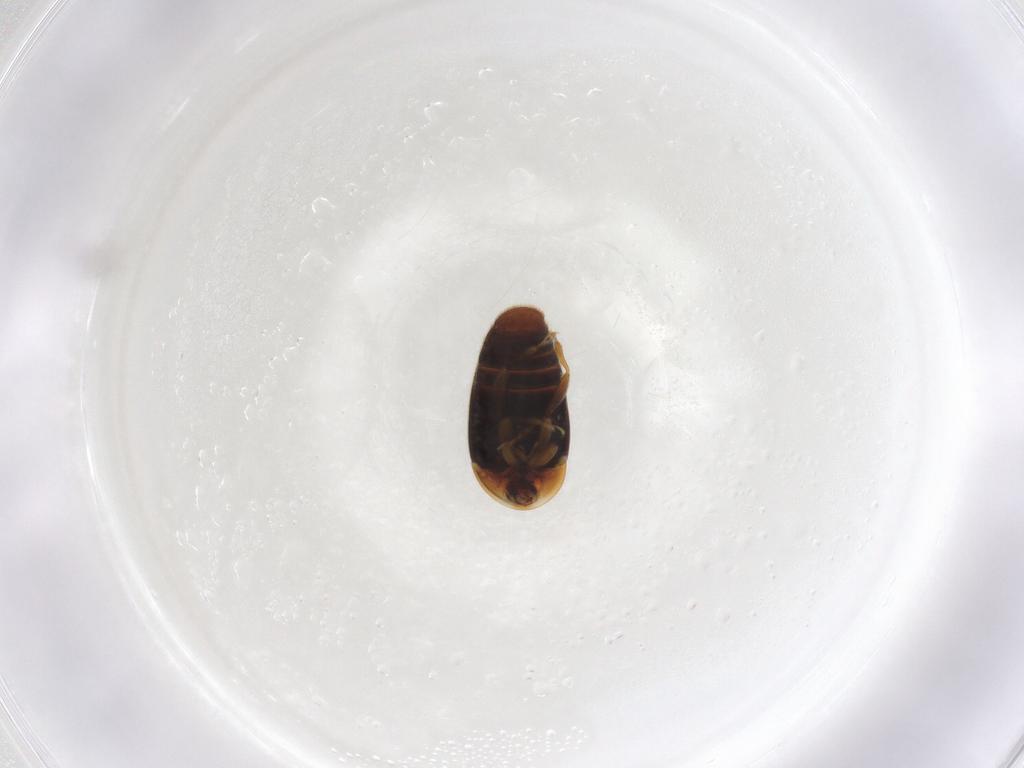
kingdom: Animalia
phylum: Arthropoda
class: Insecta
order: Coleoptera
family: Corylophidae
